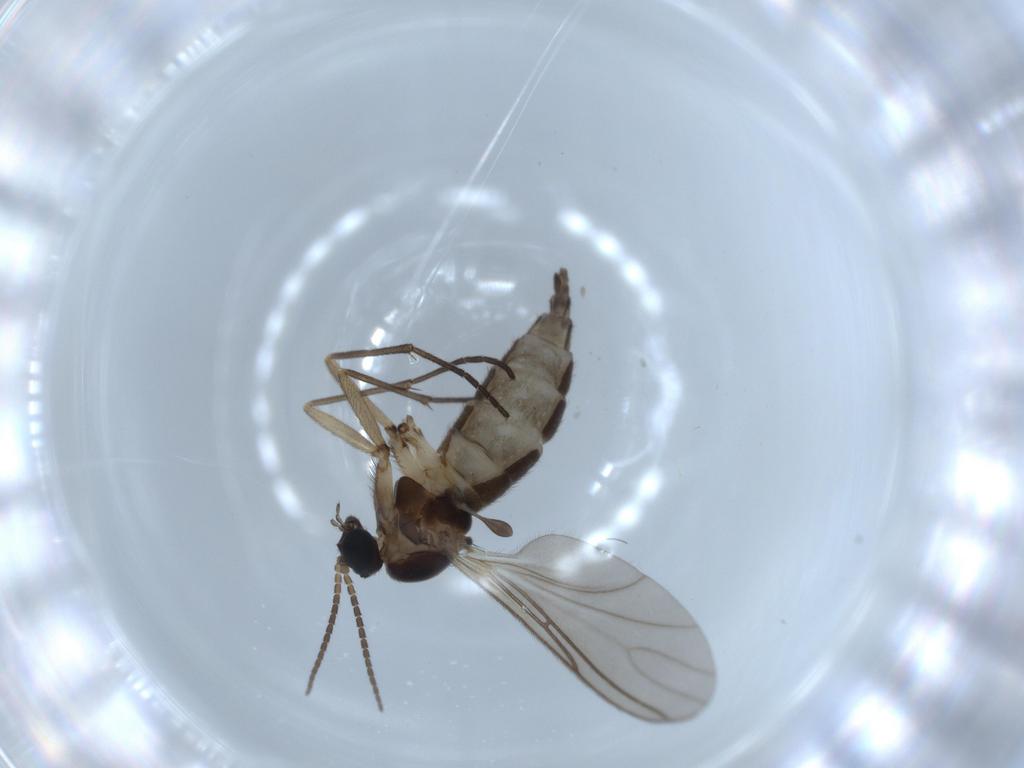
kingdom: Animalia
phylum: Arthropoda
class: Insecta
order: Diptera
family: Sciaridae
